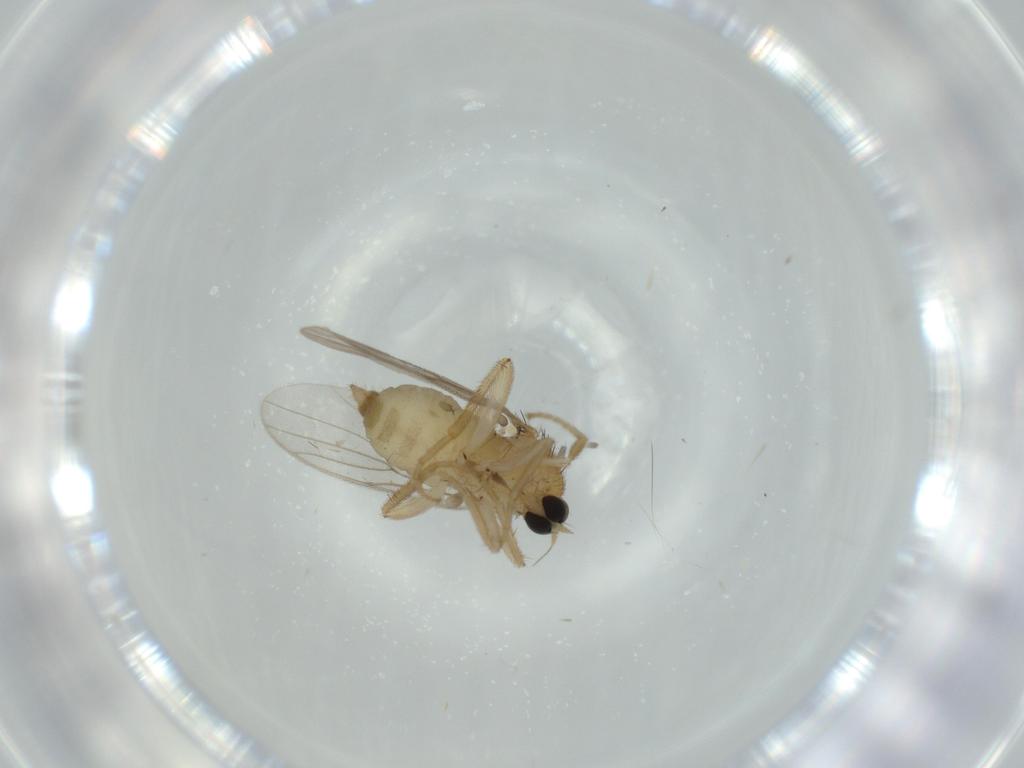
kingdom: Animalia
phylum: Arthropoda
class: Insecta
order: Diptera
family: Hybotidae
